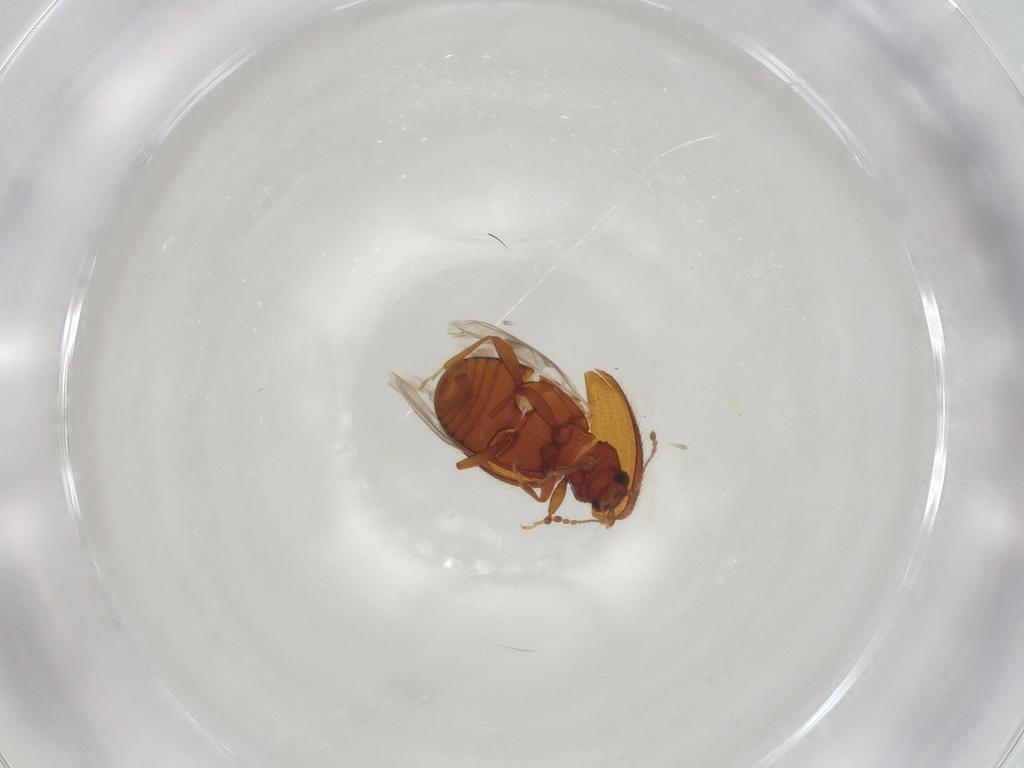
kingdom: Animalia
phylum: Arthropoda
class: Insecta
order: Coleoptera
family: Latridiidae
